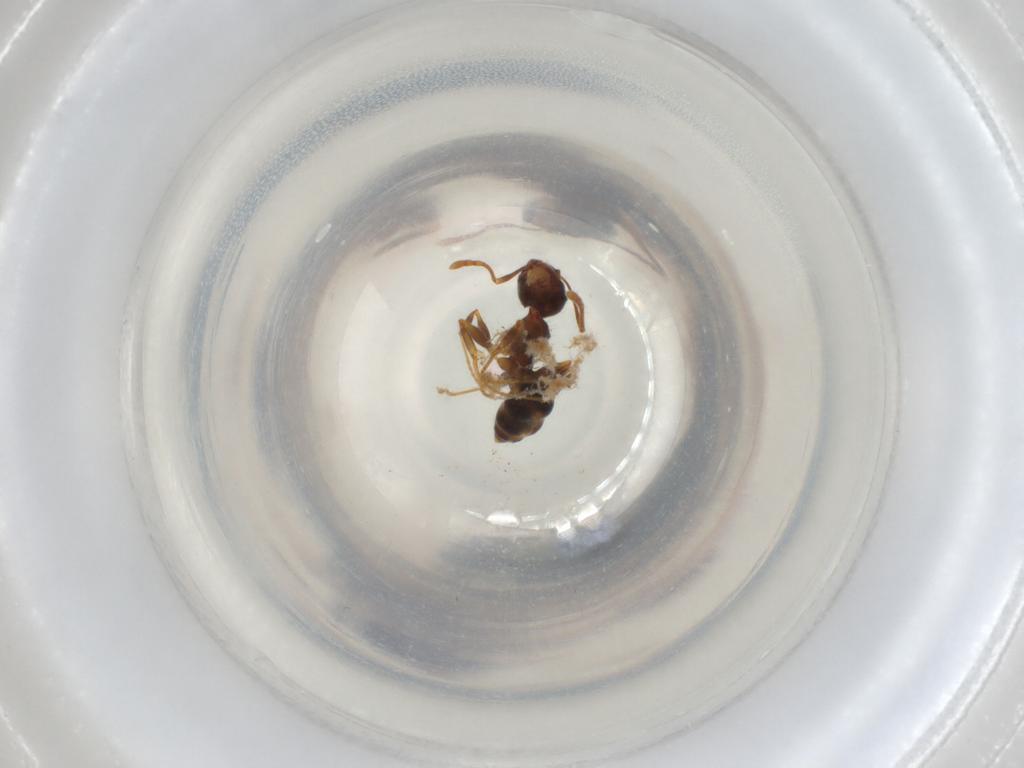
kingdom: Animalia
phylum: Arthropoda
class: Insecta
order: Hymenoptera
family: Formicidae
